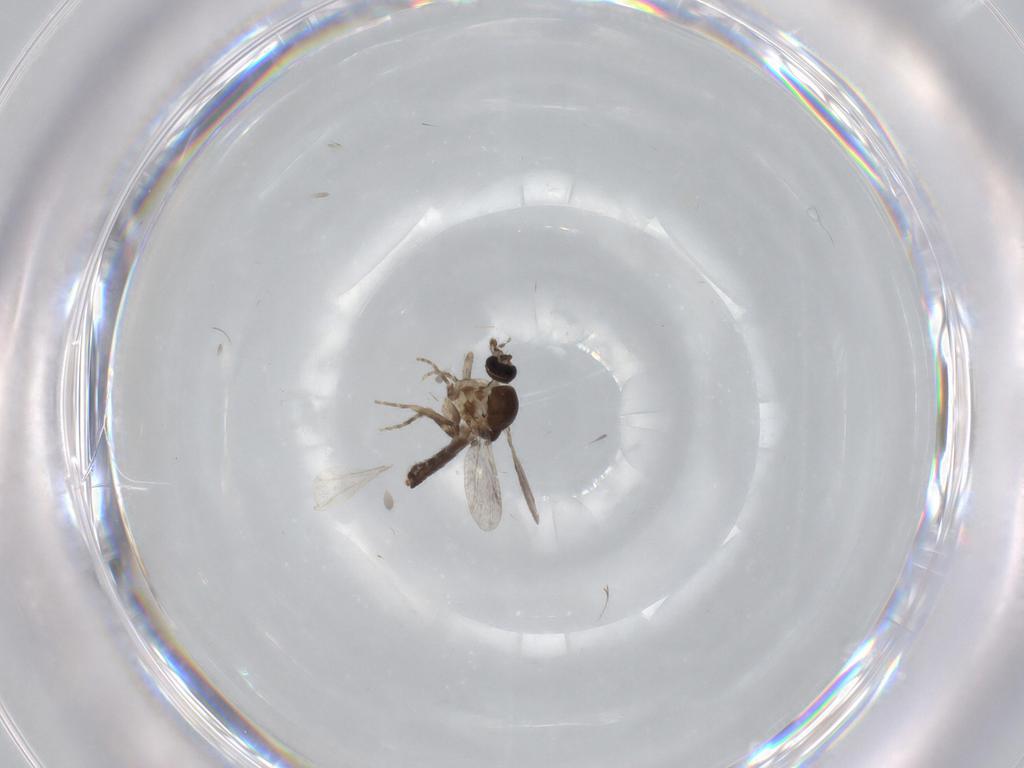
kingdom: Animalia
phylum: Arthropoda
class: Insecta
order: Diptera
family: Ceratopogonidae
